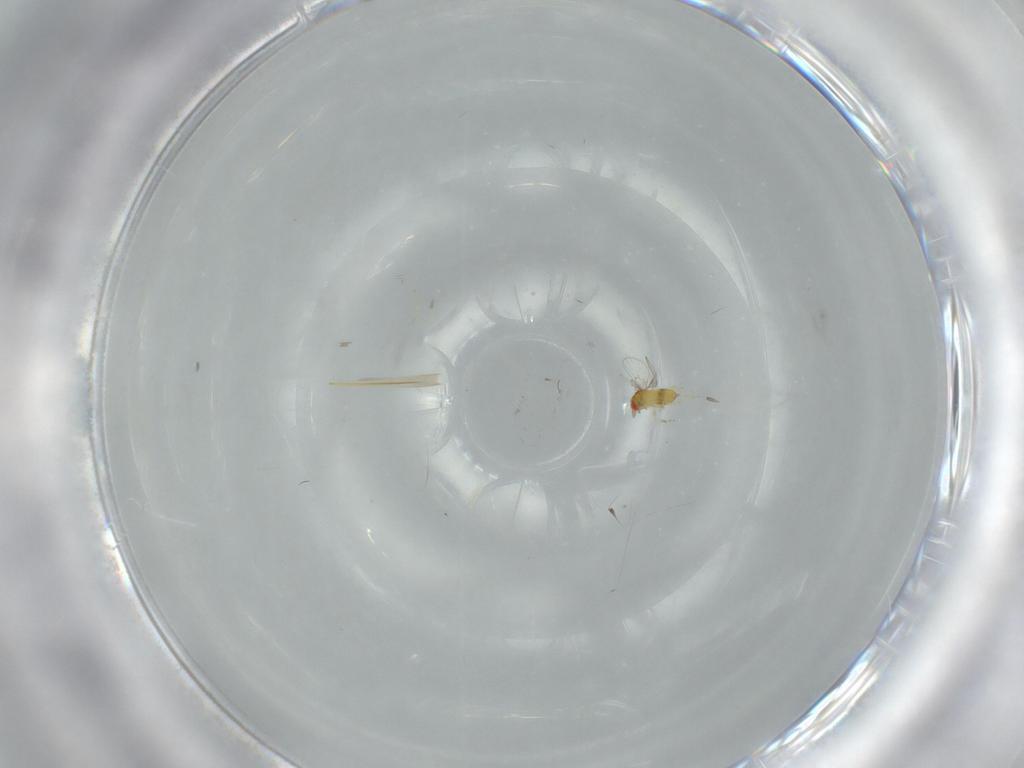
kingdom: Animalia
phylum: Arthropoda
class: Insecta
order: Hymenoptera
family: Trichogrammatidae
